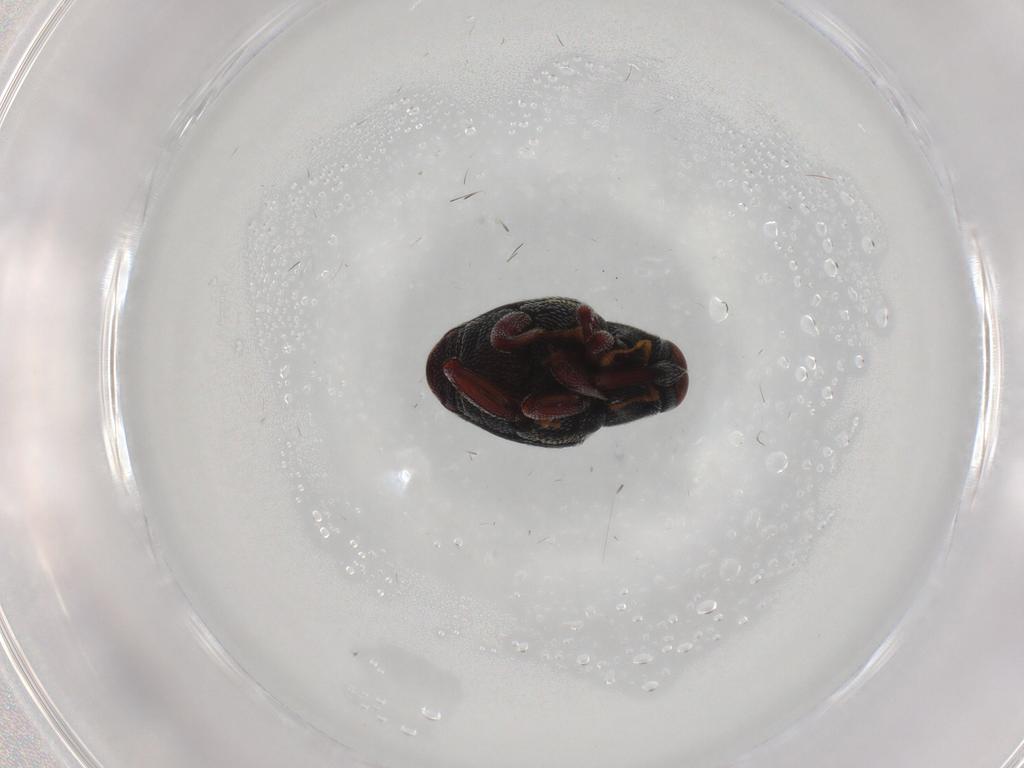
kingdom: Animalia
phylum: Arthropoda
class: Insecta
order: Coleoptera
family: Curculionidae
